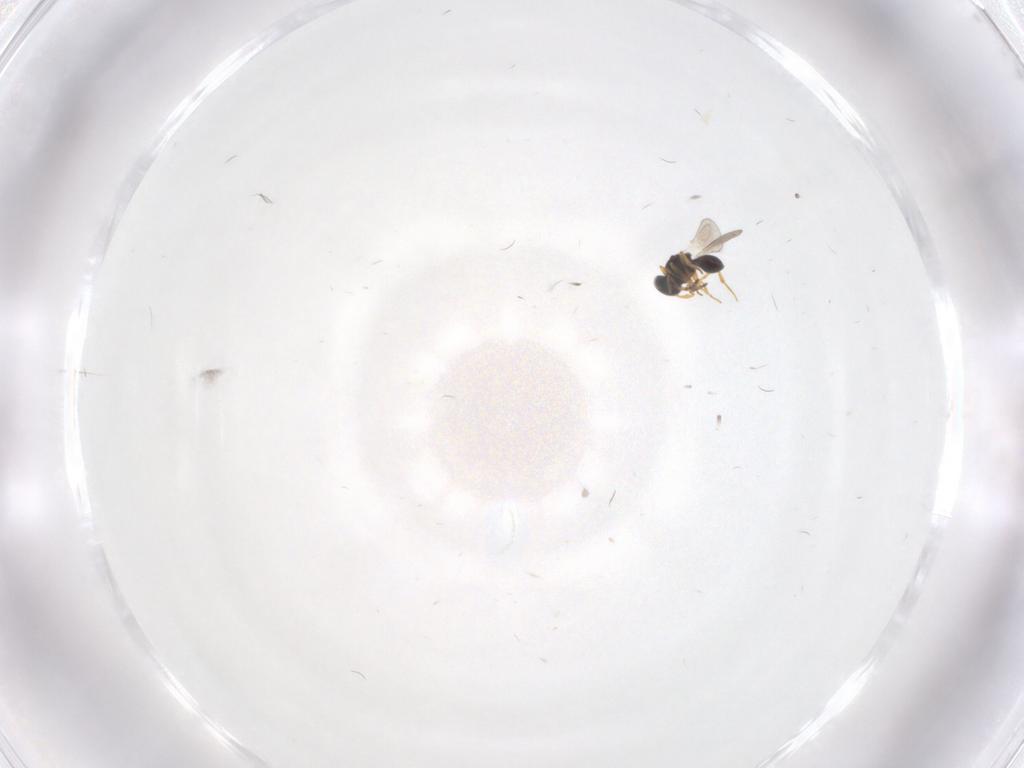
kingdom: Animalia
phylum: Arthropoda
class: Insecta
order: Hymenoptera
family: Platygastridae
